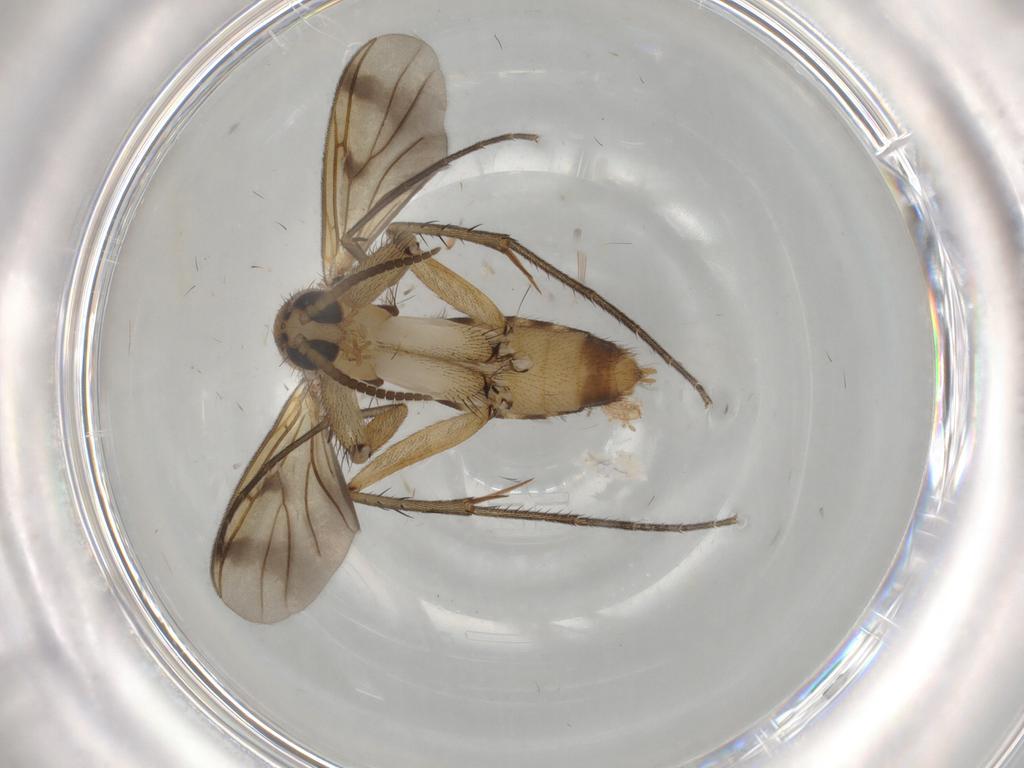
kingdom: Animalia
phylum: Arthropoda
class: Insecta
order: Diptera
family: Mycetophilidae
